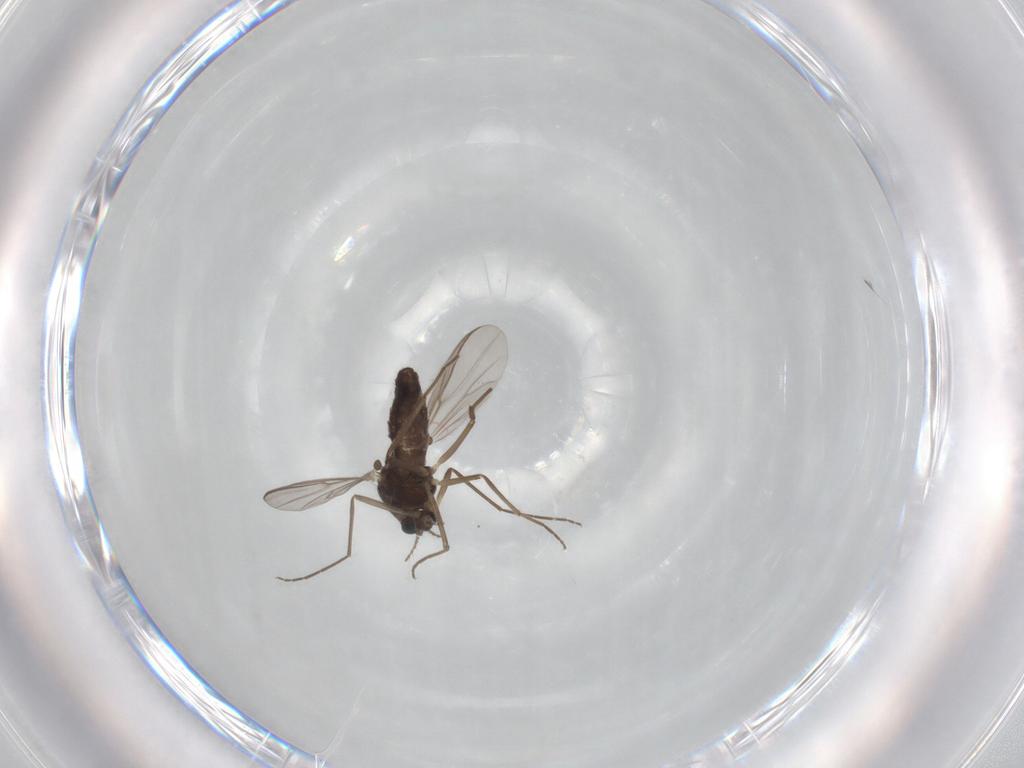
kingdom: Animalia
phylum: Arthropoda
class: Insecta
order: Diptera
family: Chironomidae
